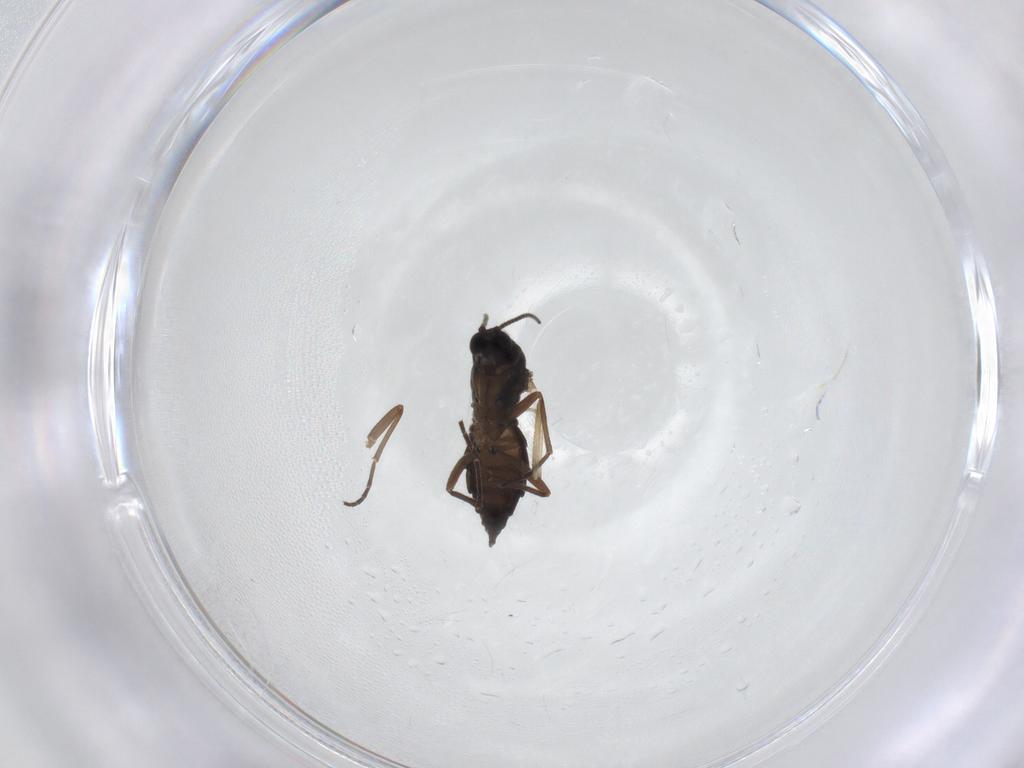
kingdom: Animalia
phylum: Arthropoda
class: Insecta
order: Diptera
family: Chironomidae
